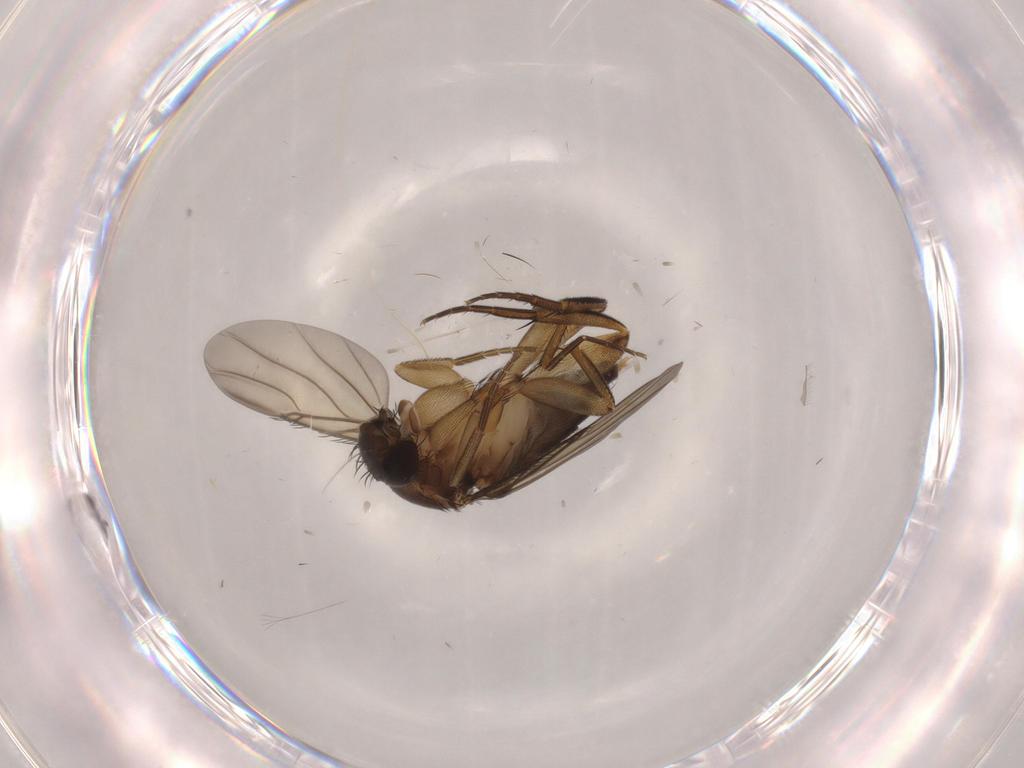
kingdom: Animalia
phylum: Arthropoda
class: Insecta
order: Diptera
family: Phoridae
